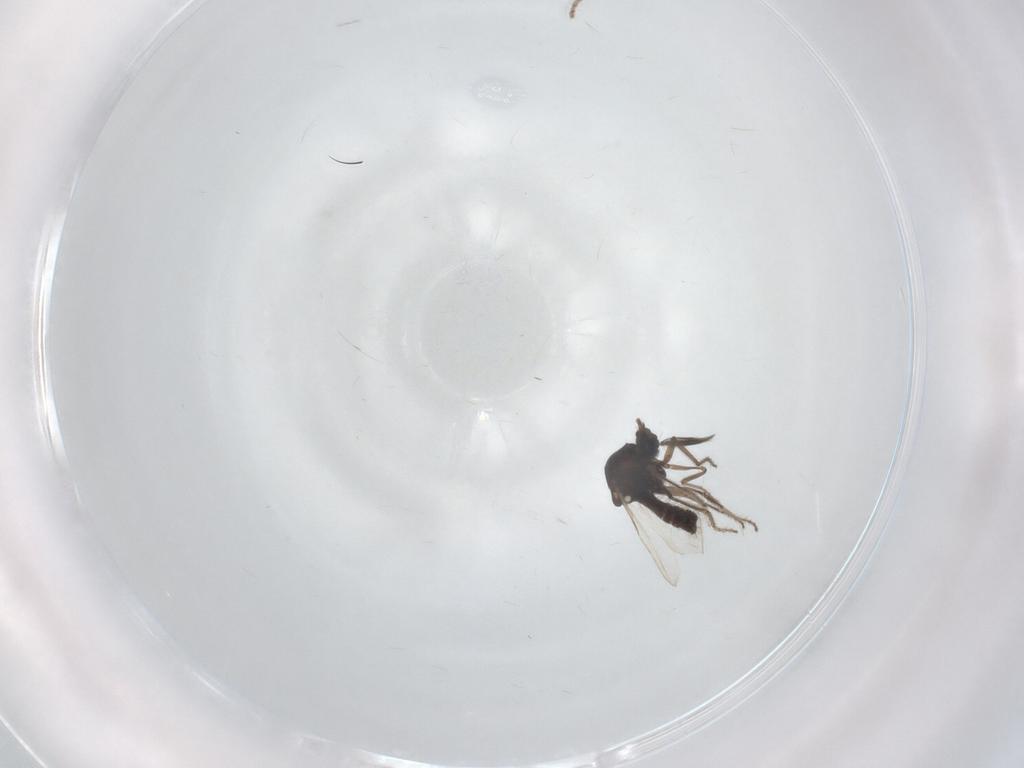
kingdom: Animalia
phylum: Arthropoda
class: Insecta
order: Diptera
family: Ceratopogonidae
